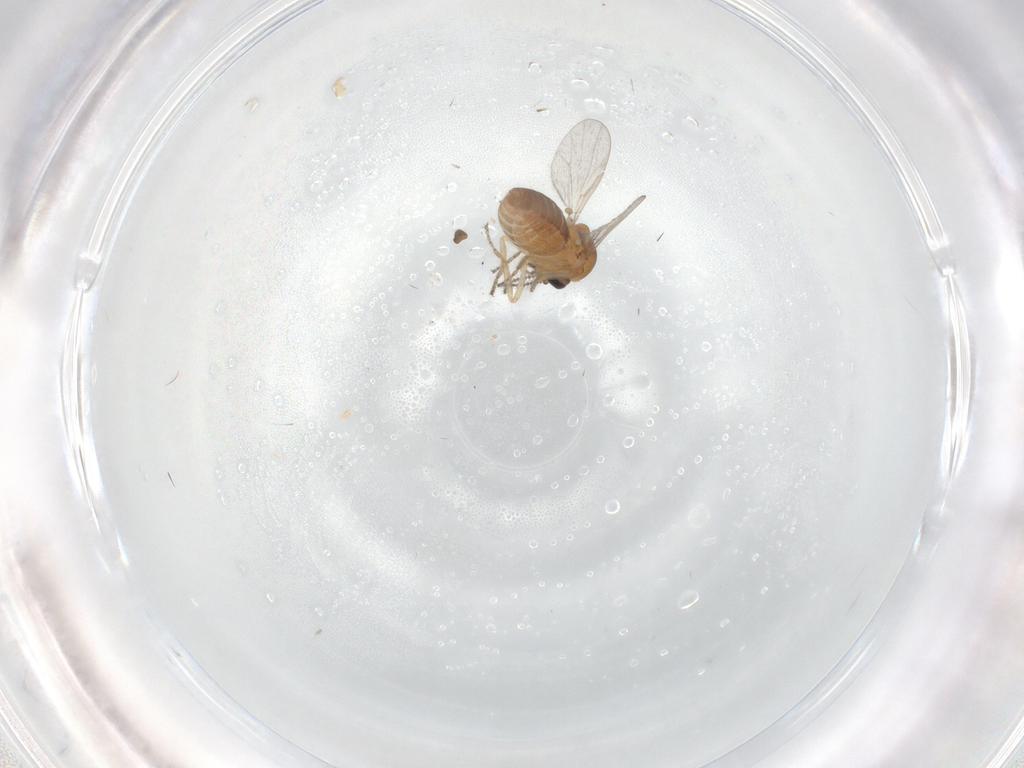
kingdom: Animalia
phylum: Arthropoda
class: Insecta
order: Diptera
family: Ceratopogonidae
